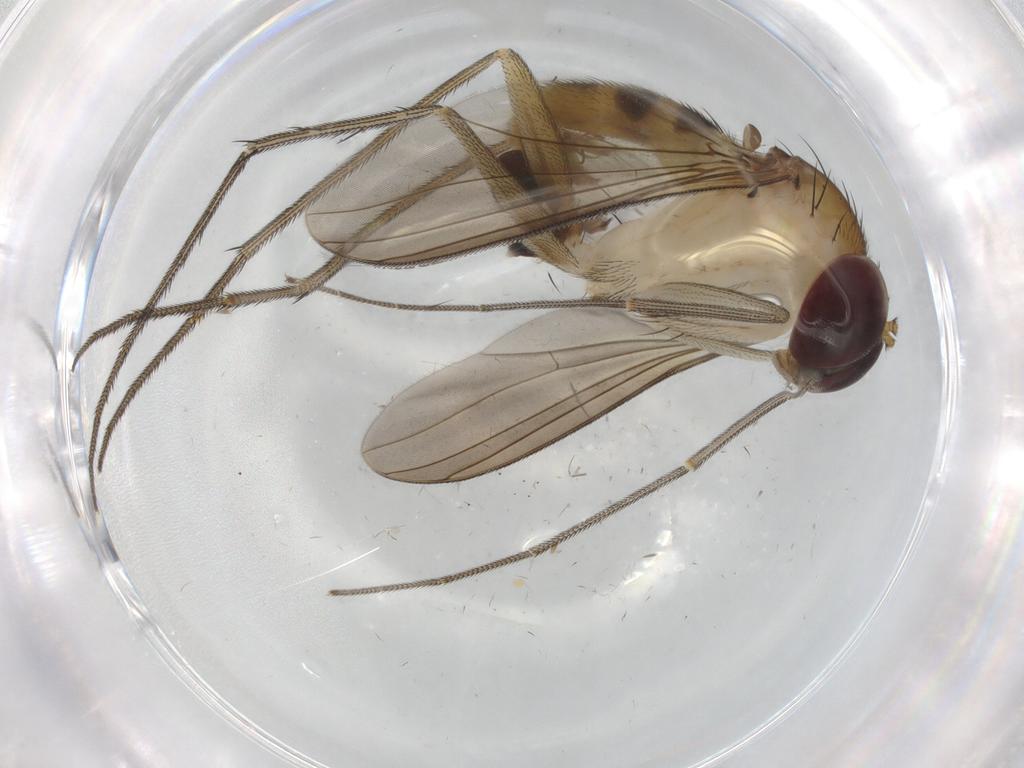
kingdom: Animalia
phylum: Arthropoda
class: Insecta
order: Diptera
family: Dolichopodidae
